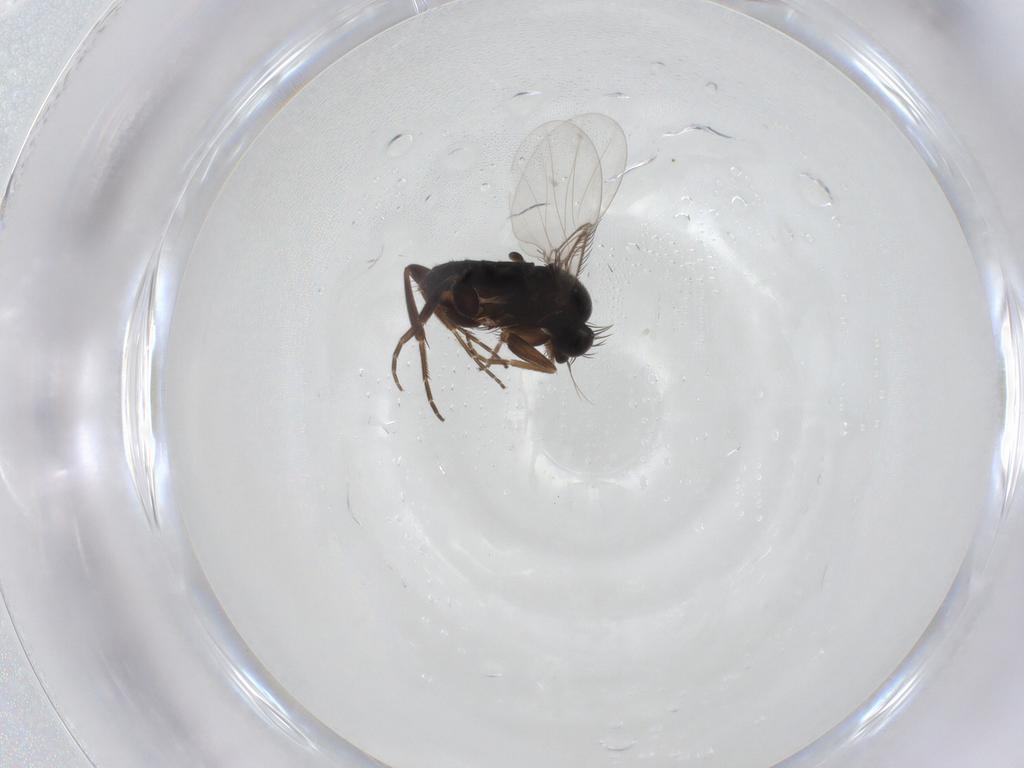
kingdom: Animalia
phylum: Arthropoda
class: Insecta
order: Diptera
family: Phoridae
